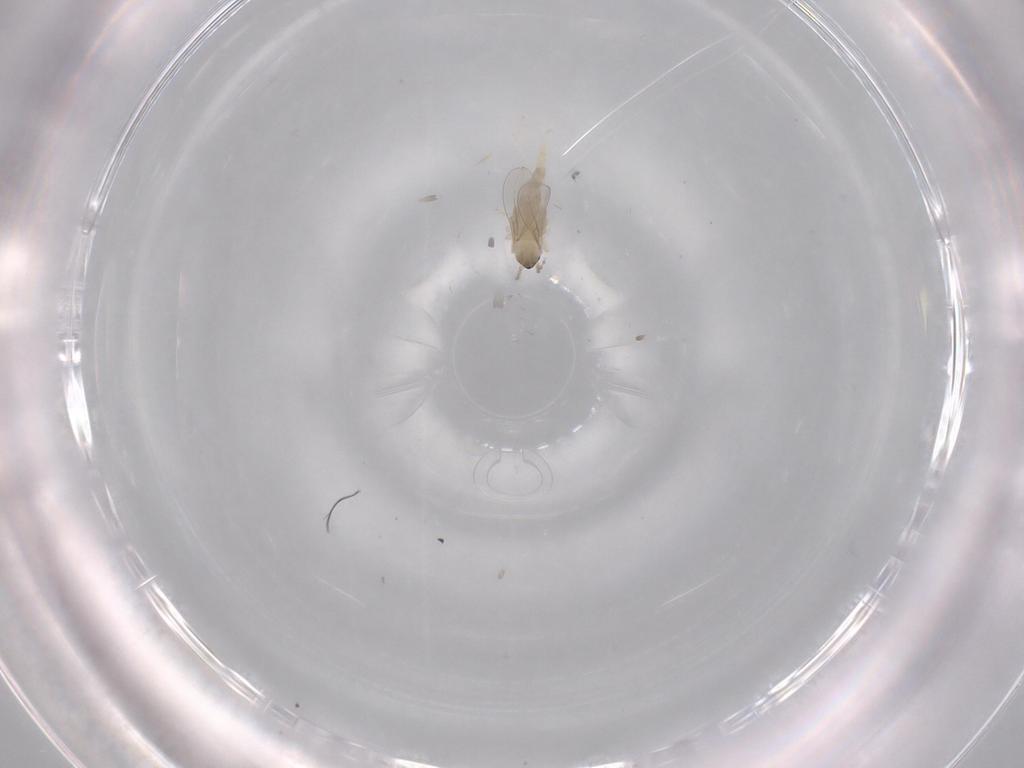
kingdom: Animalia
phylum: Arthropoda
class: Insecta
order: Diptera
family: Cecidomyiidae
